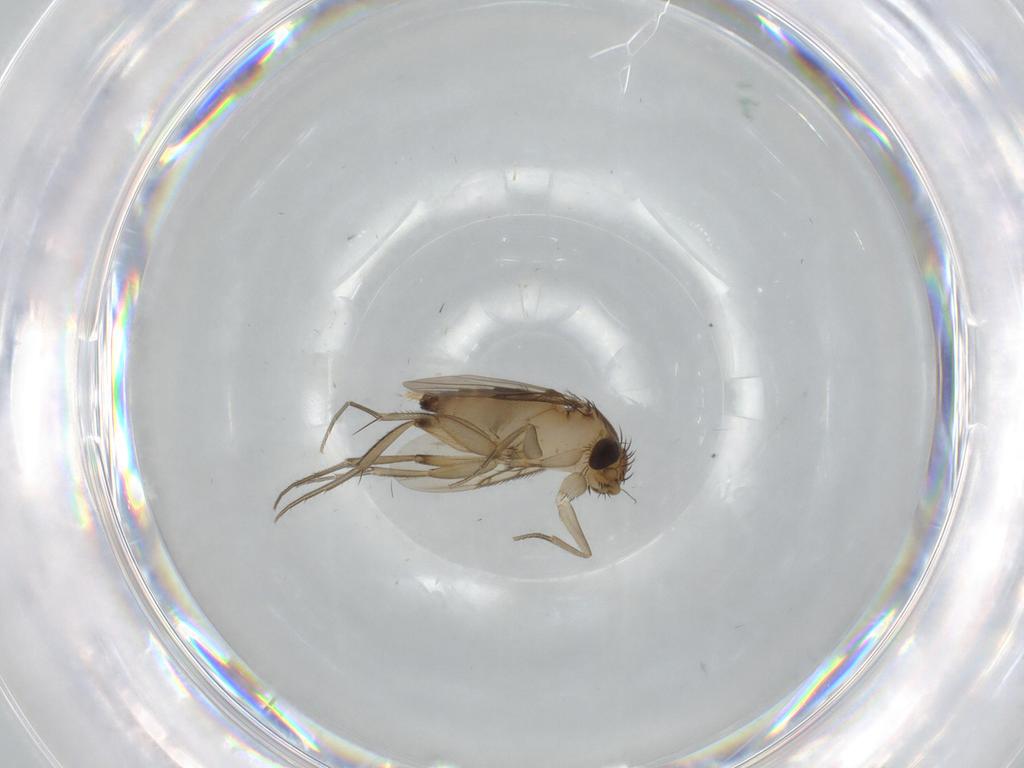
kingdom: Animalia
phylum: Arthropoda
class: Insecta
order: Diptera
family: Phoridae
